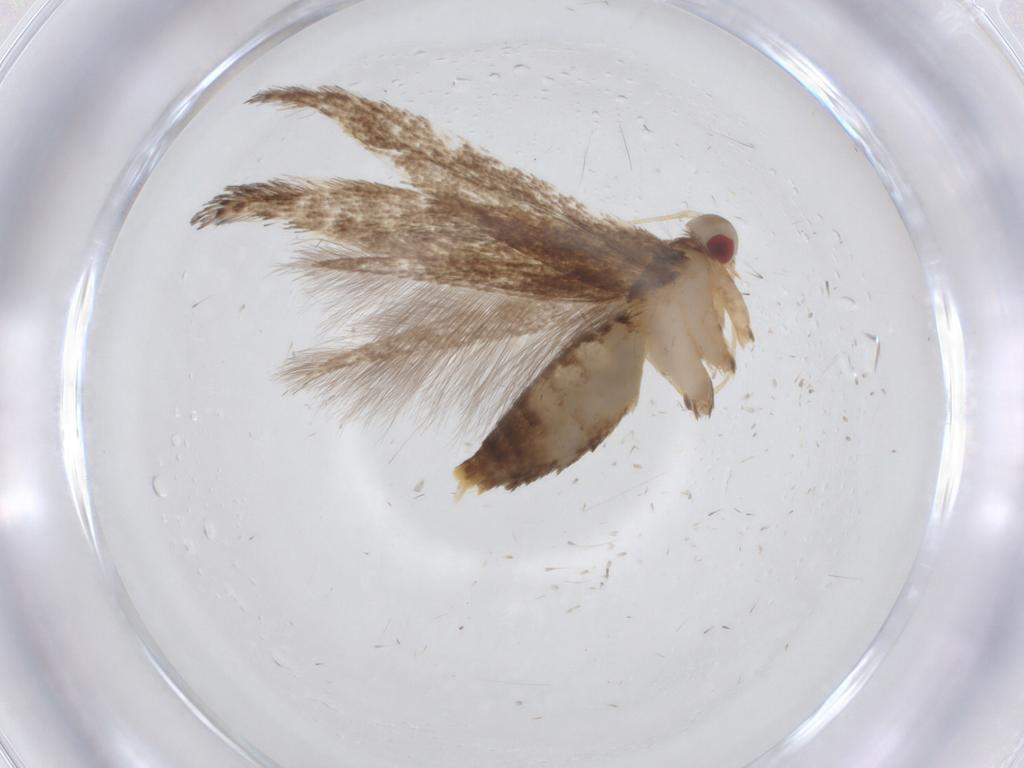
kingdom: Animalia
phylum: Arthropoda
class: Insecta
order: Lepidoptera
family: Cosmopterigidae
